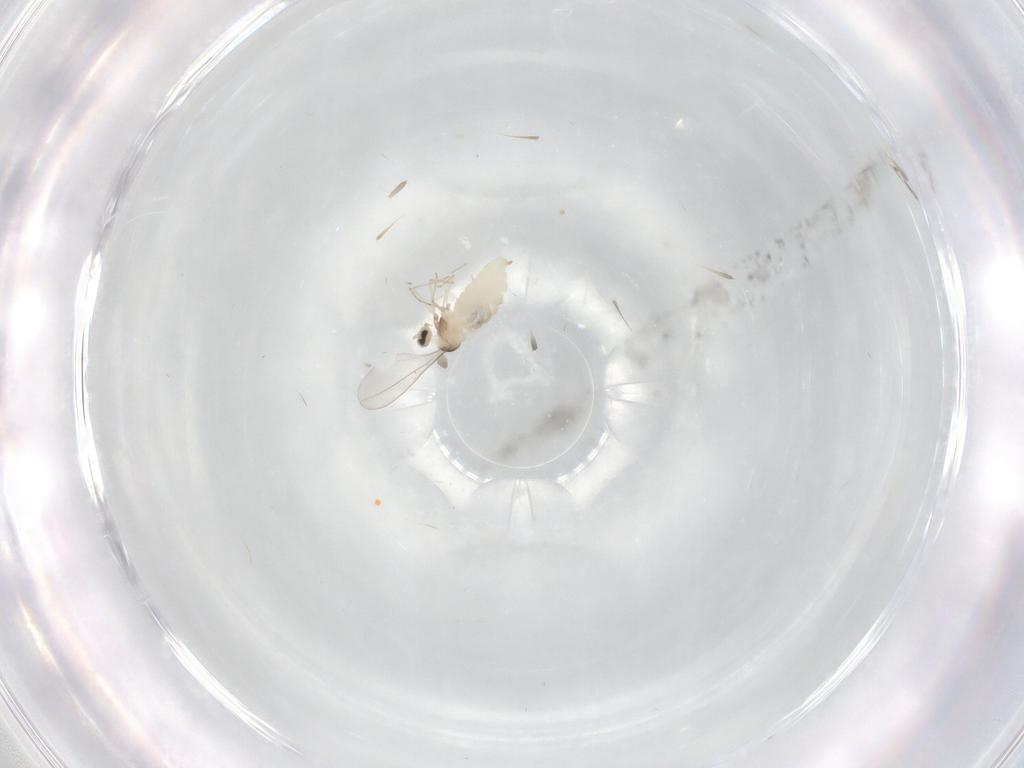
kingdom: Animalia
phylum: Arthropoda
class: Insecta
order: Diptera
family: Cecidomyiidae
